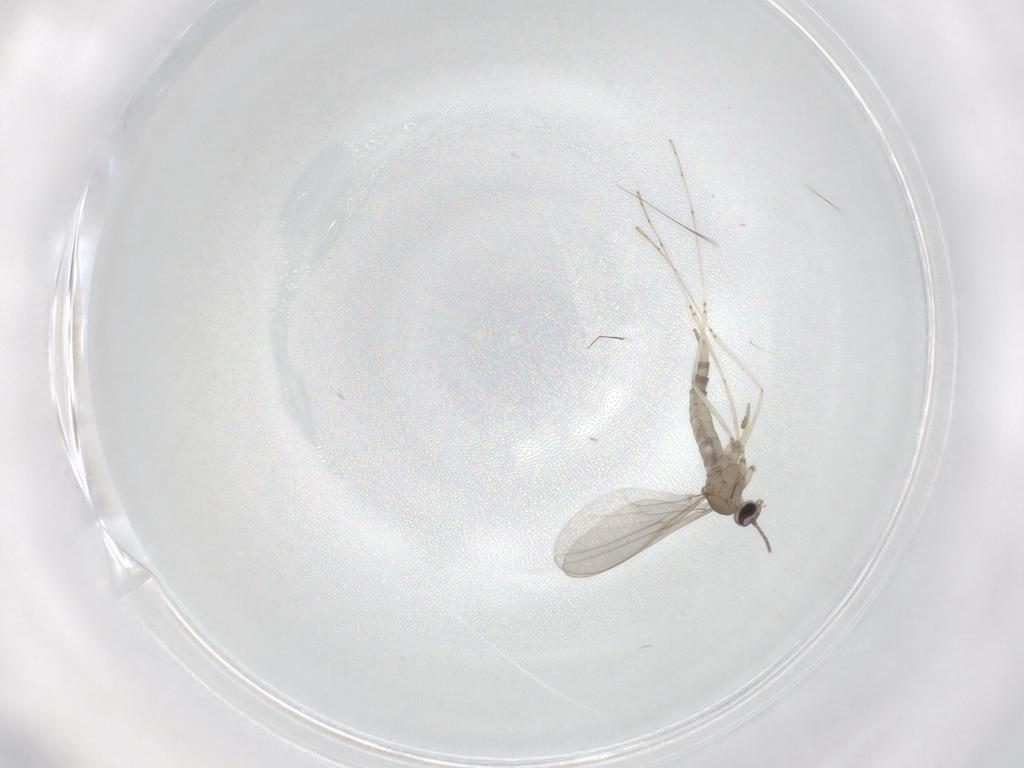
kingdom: Animalia
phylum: Arthropoda
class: Insecta
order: Diptera
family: Cecidomyiidae
